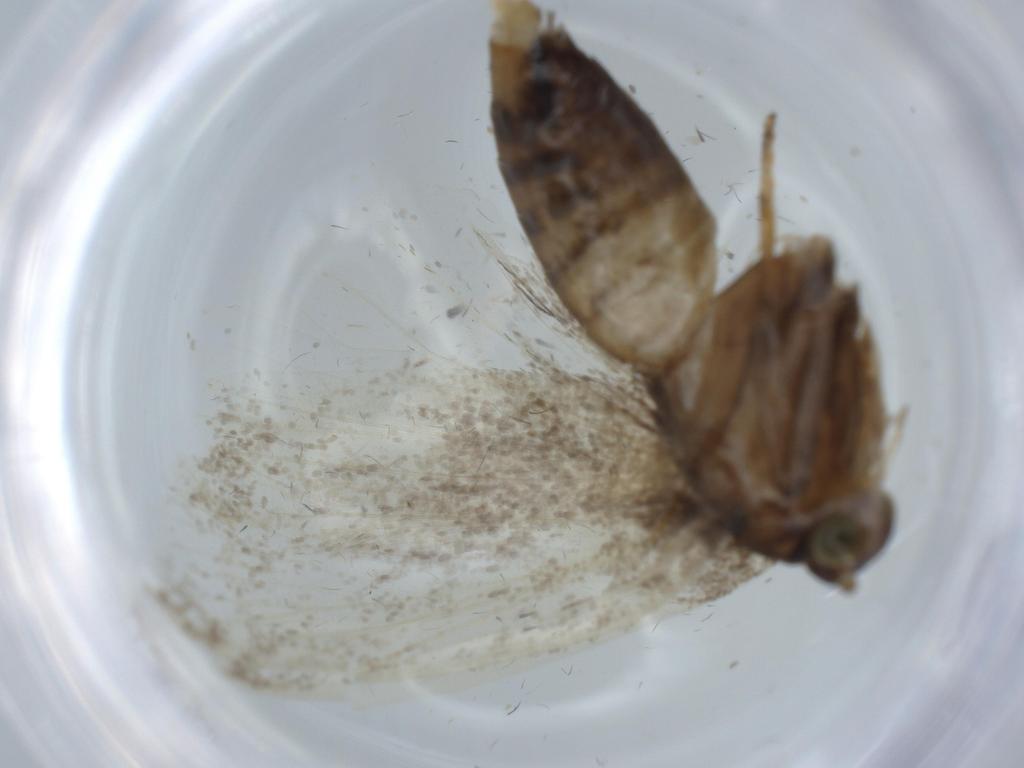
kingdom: Animalia
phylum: Arthropoda
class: Insecta
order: Lepidoptera
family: Choreutidae
